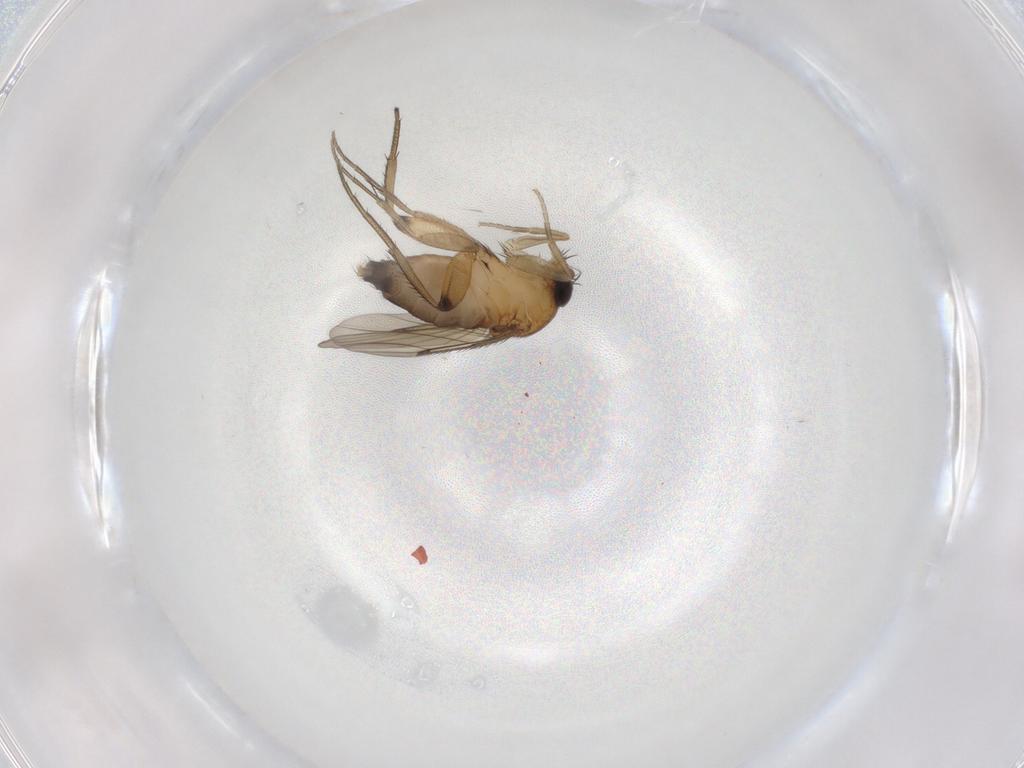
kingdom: Animalia
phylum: Arthropoda
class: Insecta
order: Diptera
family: Phoridae
